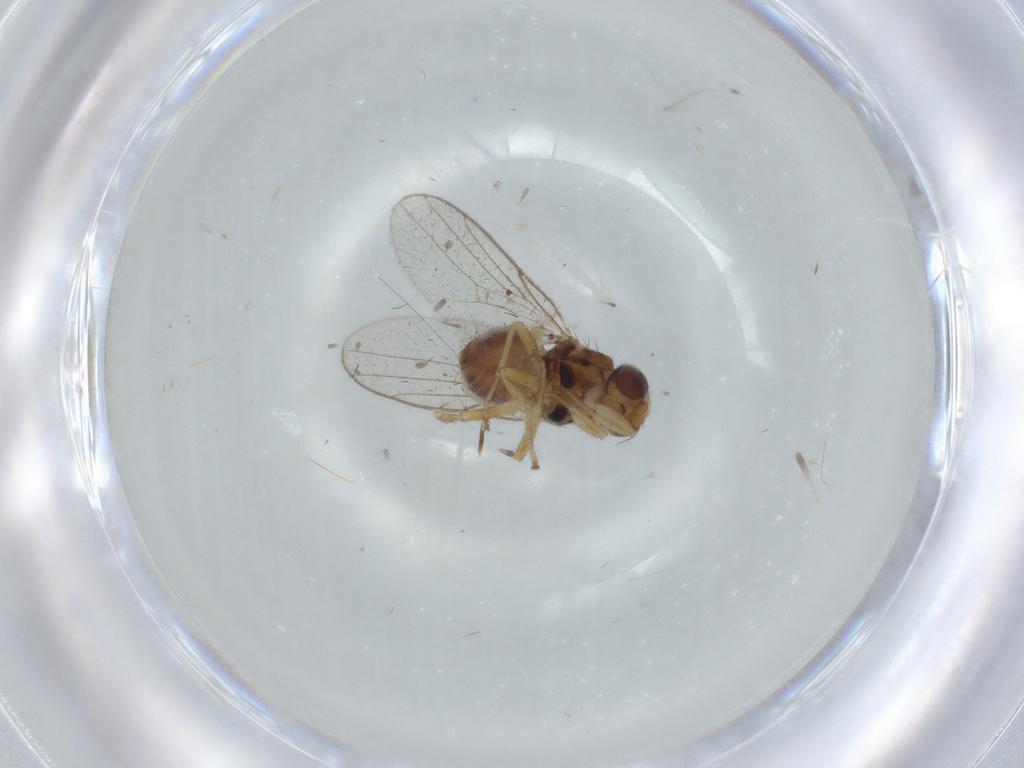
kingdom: Animalia
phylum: Arthropoda
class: Insecta
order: Diptera
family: Chloropidae
